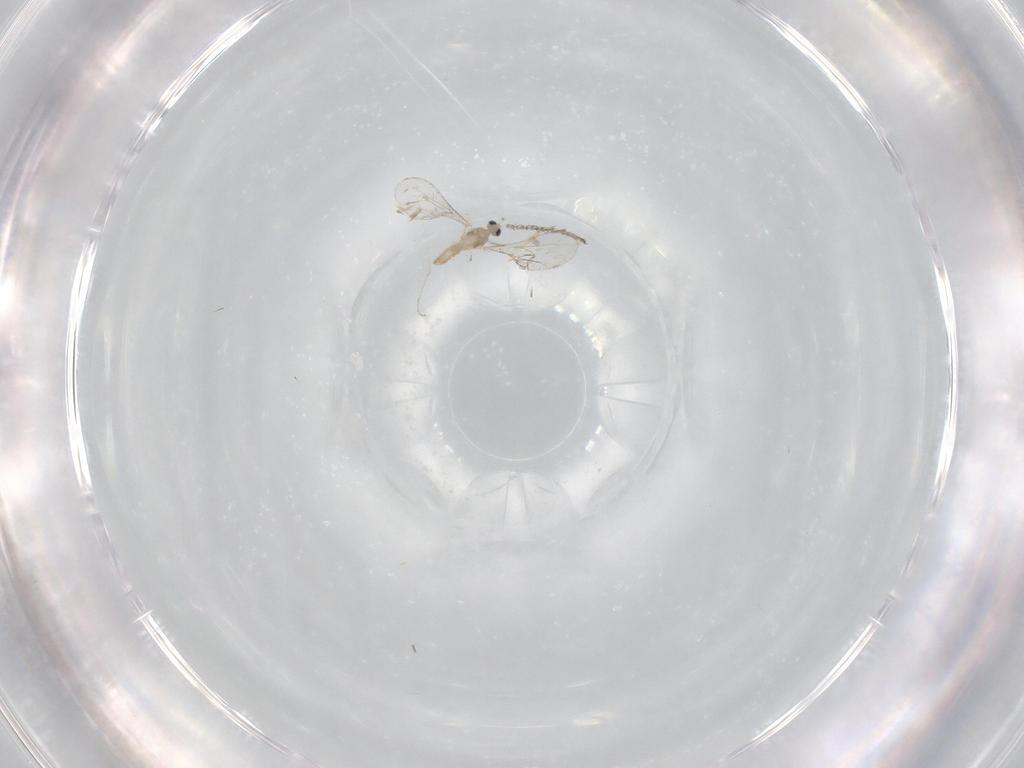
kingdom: Animalia
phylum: Arthropoda
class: Insecta
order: Diptera
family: Cecidomyiidae
